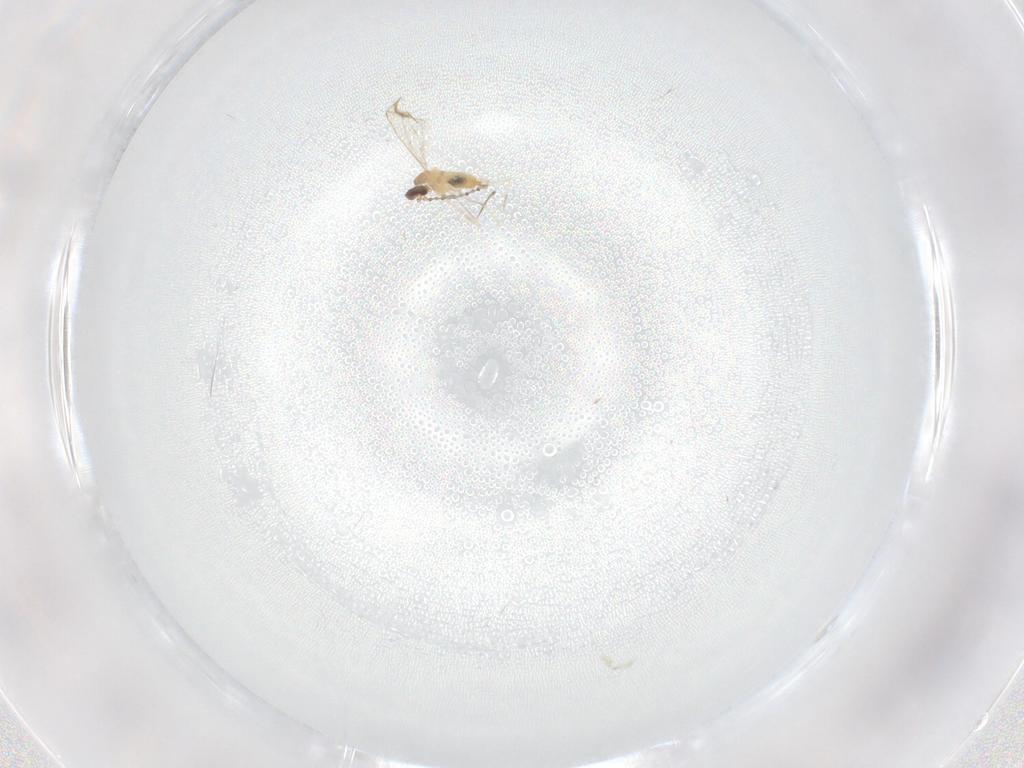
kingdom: Animalia
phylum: Arthropoda
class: Insecta
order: Diptera
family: Cecidomyiidae
